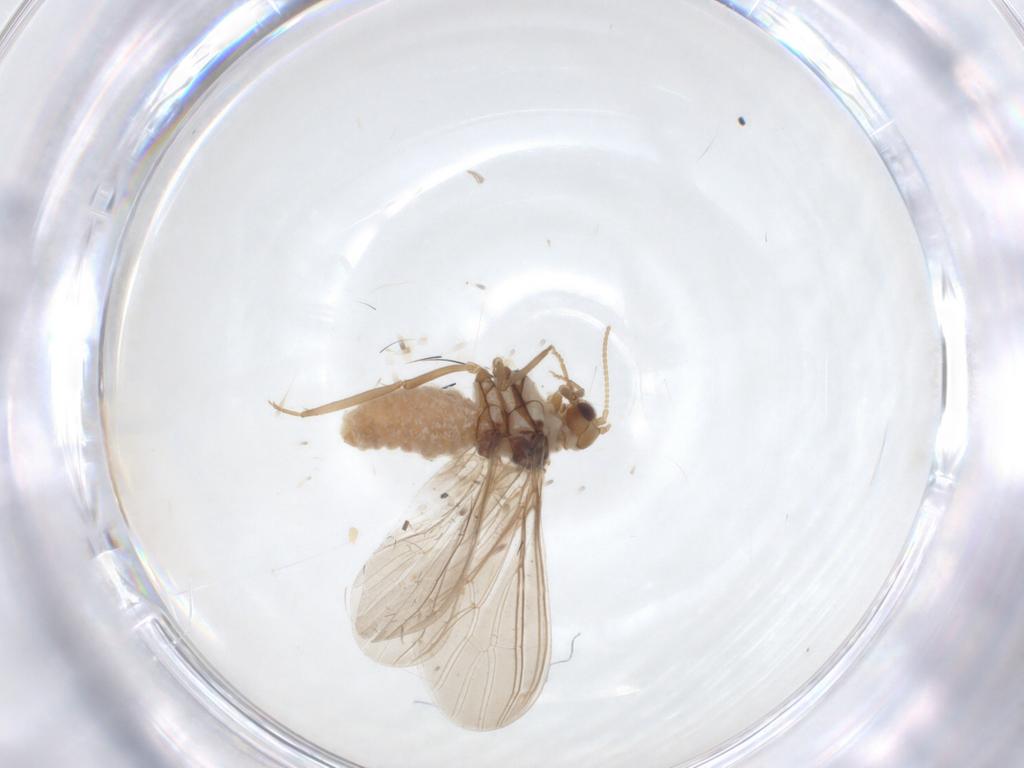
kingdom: Animalia
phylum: Arthropoda
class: Insecta
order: Neuroptera
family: Coniopterygidae
